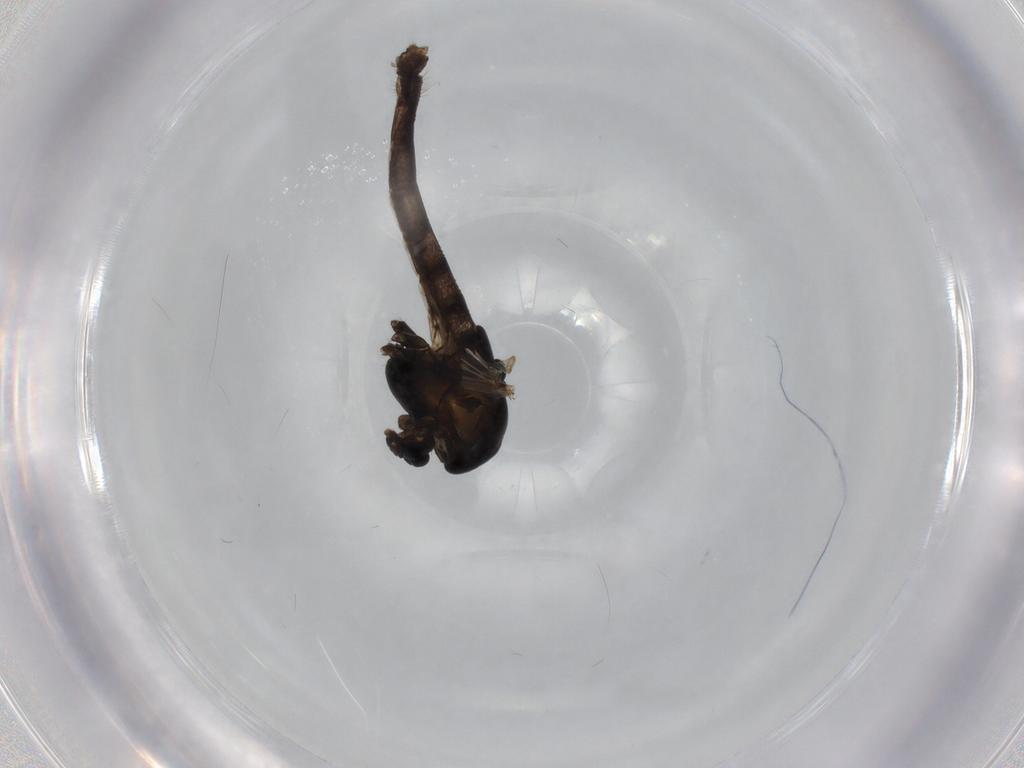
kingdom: Animalia
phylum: Arthropoda
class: Insecta
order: Diptera
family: Chironomidae
